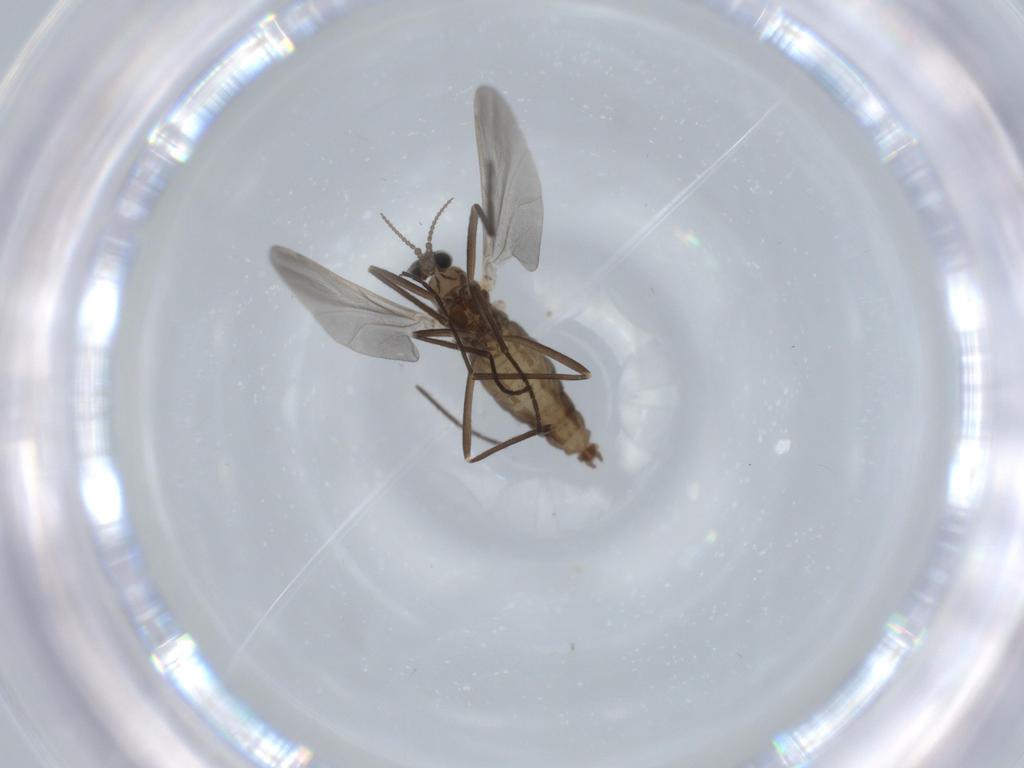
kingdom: Animalia
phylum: Arthropoda
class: Insecta
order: Diptera
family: Cecidomyiidae
